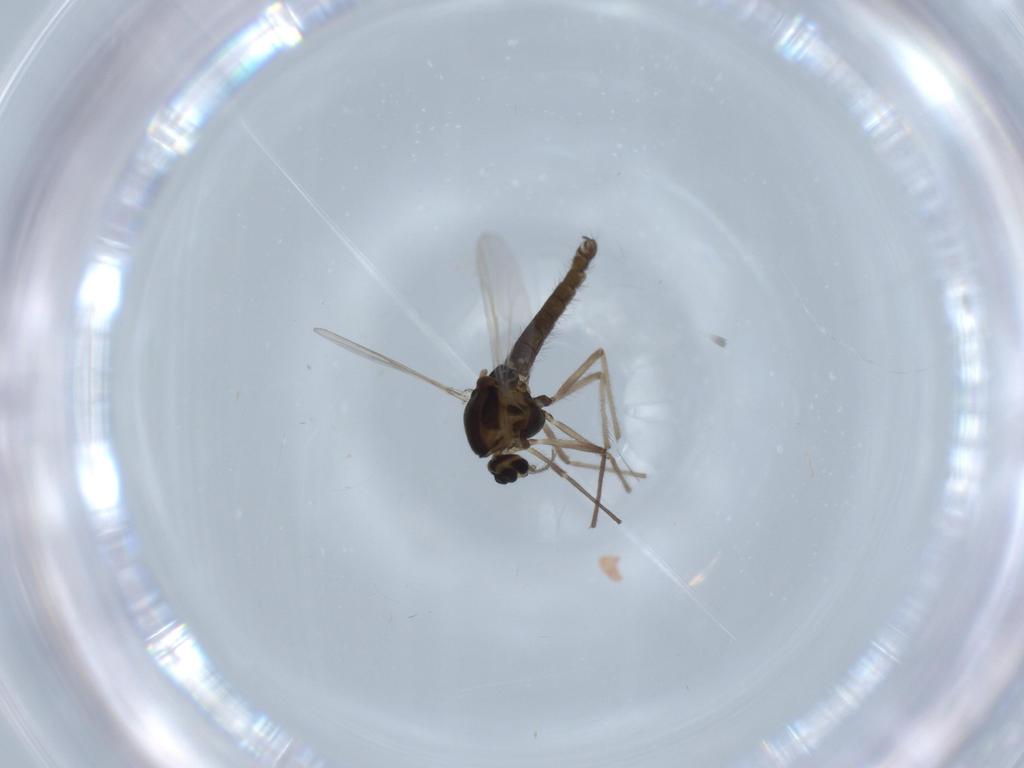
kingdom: Animalia
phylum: Arthropoda
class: Insecta
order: Diptera
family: Chironomidae
